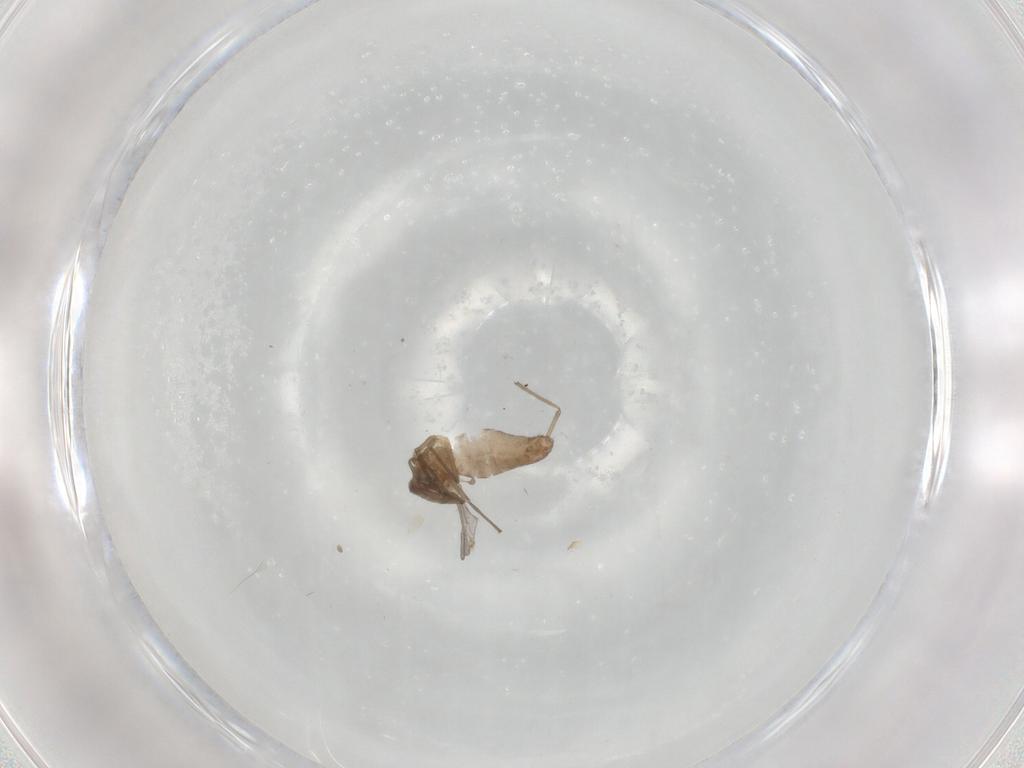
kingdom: Animalia
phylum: Arthropoda
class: Insecta
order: Diptera
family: Chironomidae
